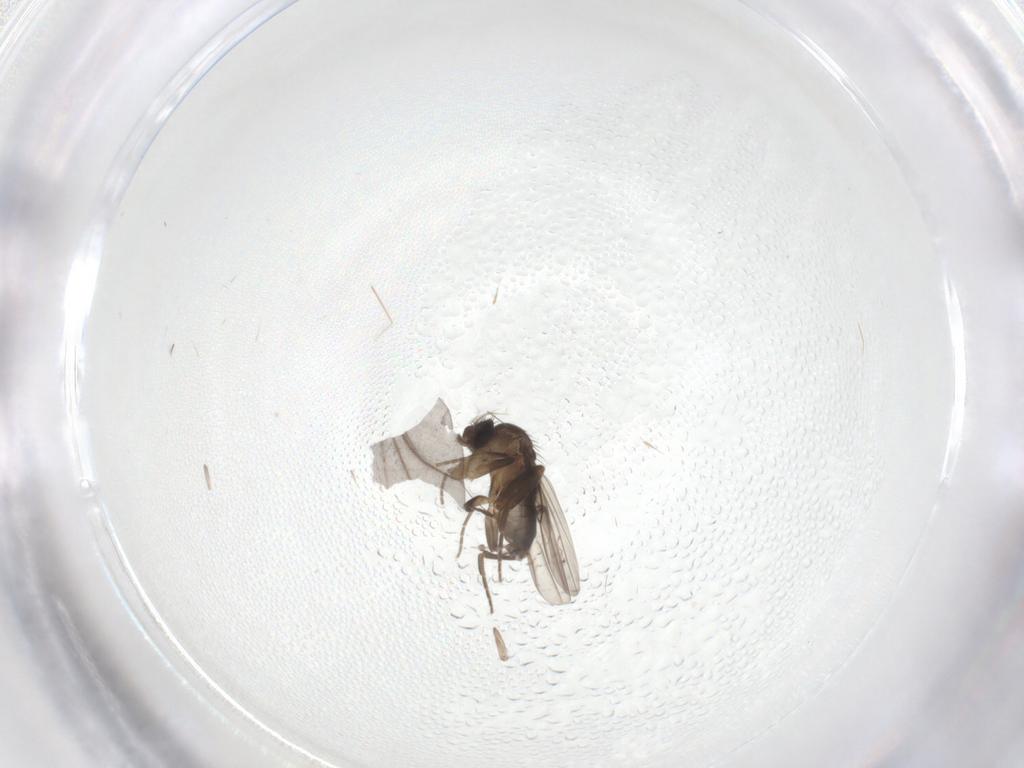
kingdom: Animalia
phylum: Arthropoda
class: Insecta
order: Diptera
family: Psychodidae
